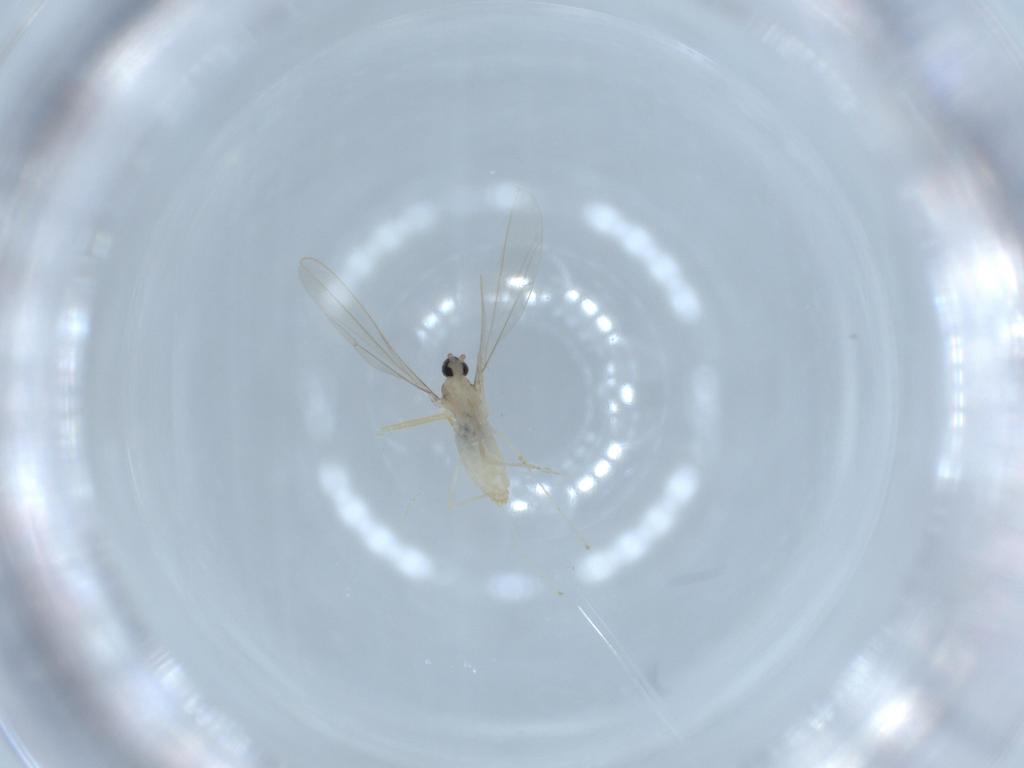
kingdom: Animalia
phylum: Arthropoda
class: Insecta
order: Diptera
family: Cecidomyiidae
